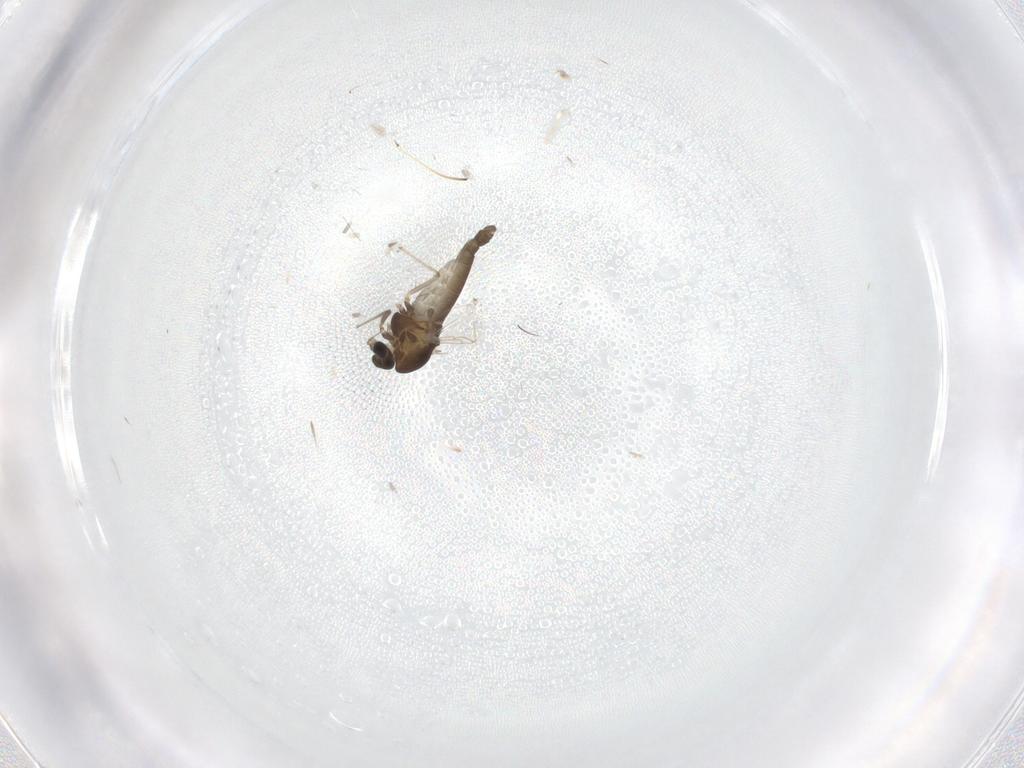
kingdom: Animalia
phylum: Arthropoda
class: Insecta
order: Diptera
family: Chironomidae
